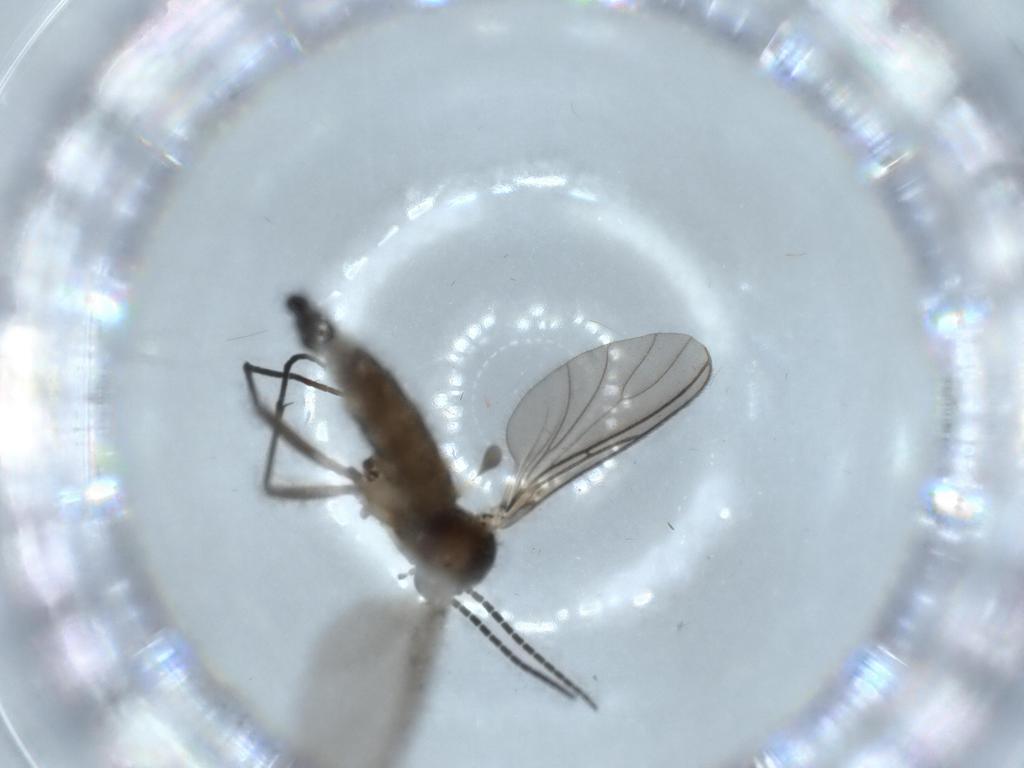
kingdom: Animalia
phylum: Arthropoda
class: Insecta
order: Diptera
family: Sciaridae
